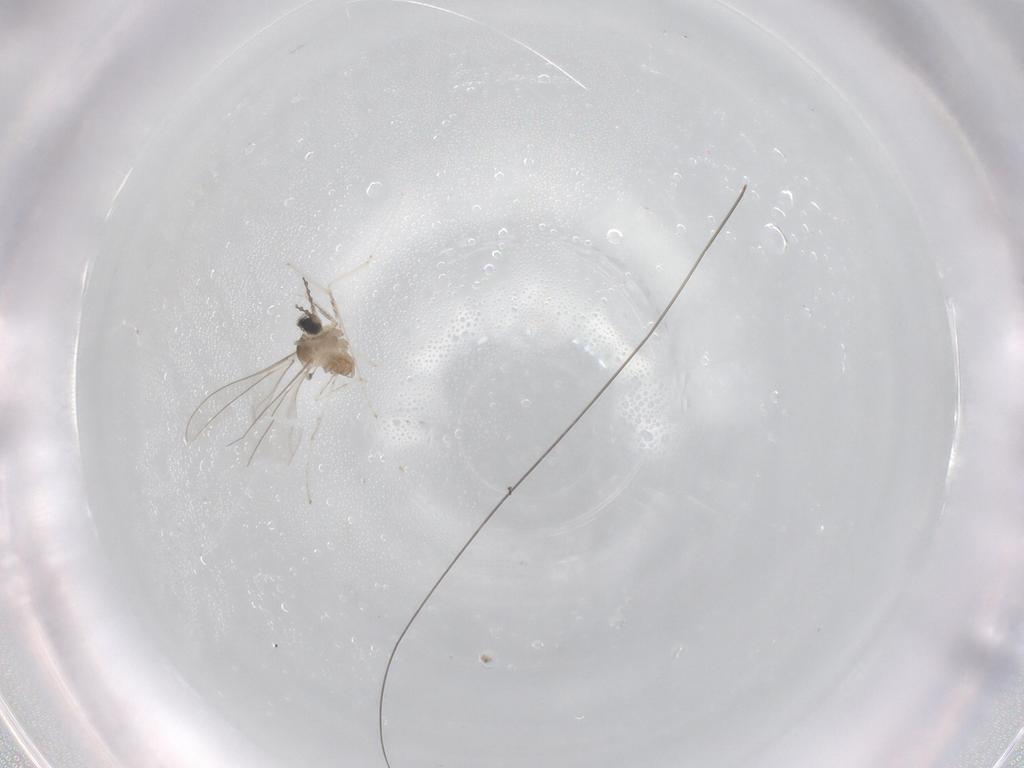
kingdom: Animalia
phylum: Arthropoda
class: Insecta
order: Diptera
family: Cecidomyiidae
